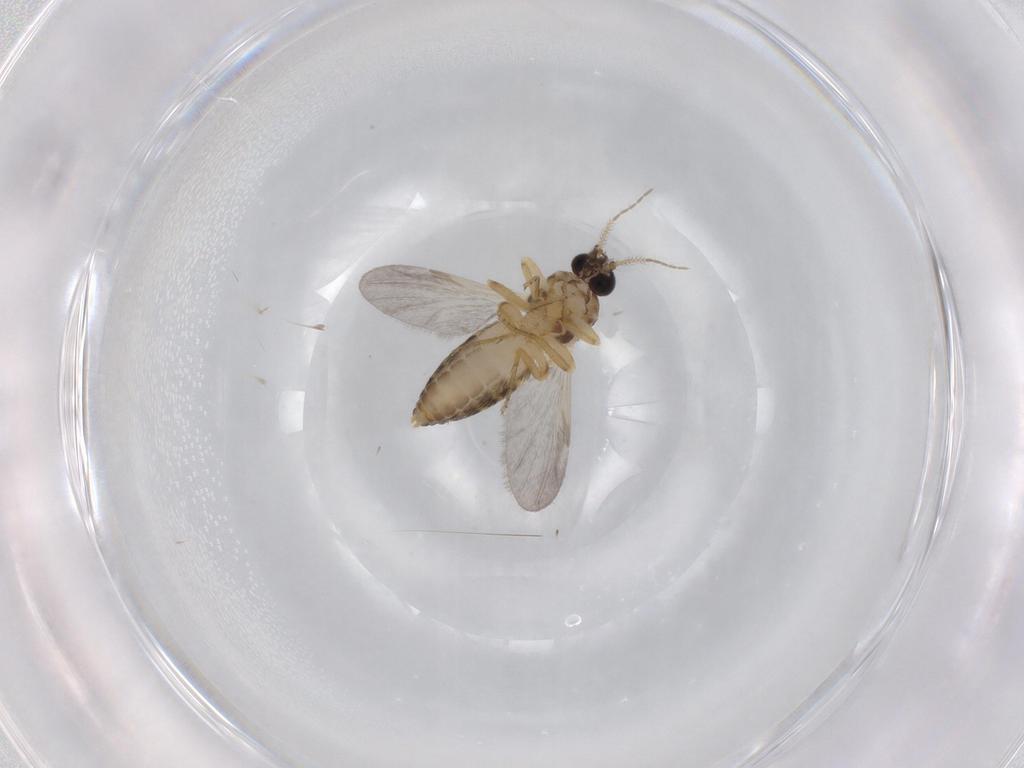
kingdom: Animalia
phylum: Arthropoda
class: Insecta
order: Diptera
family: Ceratopogonidae
